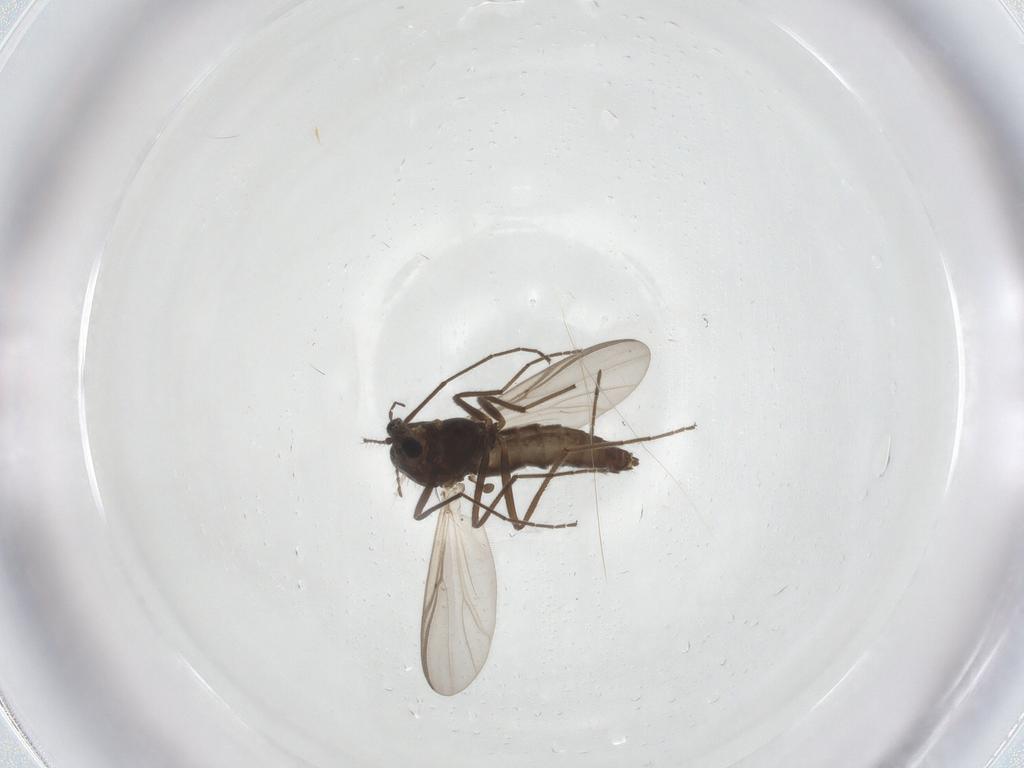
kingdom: Animalia
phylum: Arthropoda
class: Insecta
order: Diptera
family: Chironomidae
